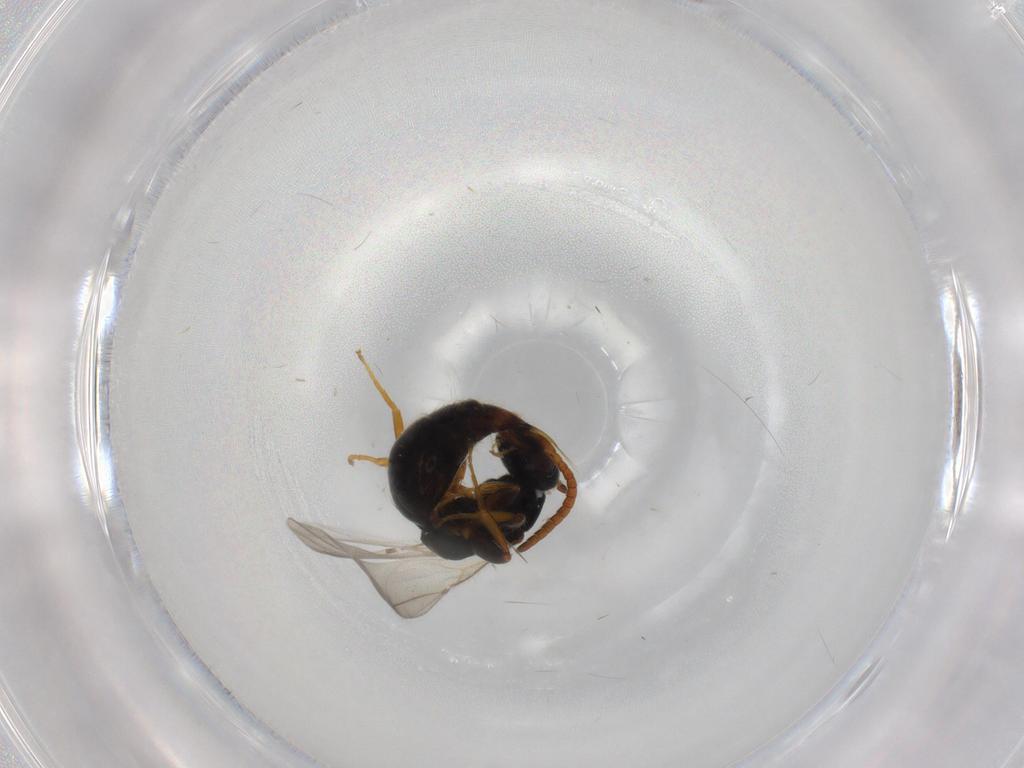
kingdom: Animalia
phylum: Arthropoda
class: Insecta
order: Hymenoptera
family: Bethylidae
